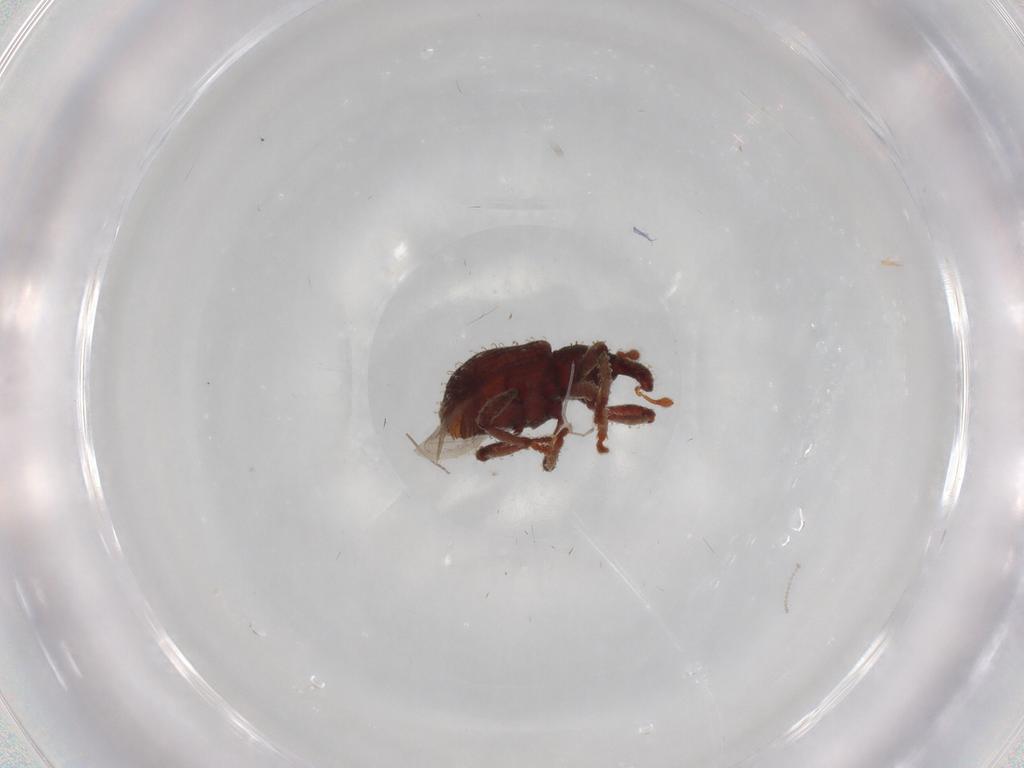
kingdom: Animalia
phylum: Arthropoda
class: Insecta
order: Coleoptera
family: Curculionidae
